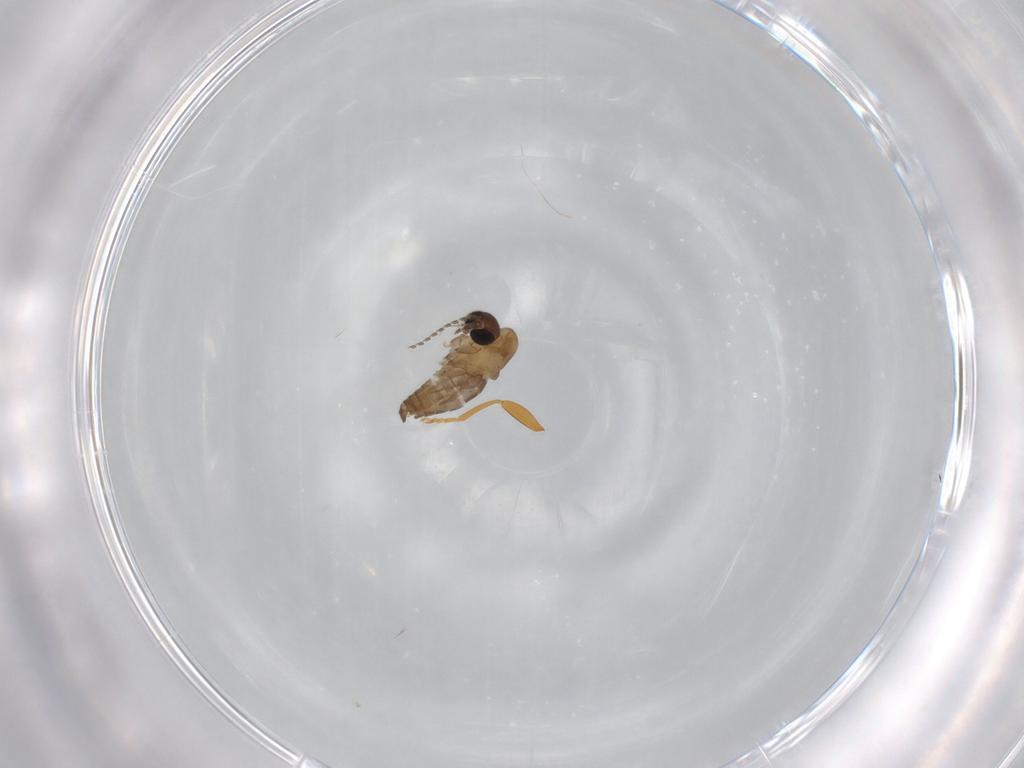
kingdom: Animalia
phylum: Arthropoda
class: Insecta
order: Diptera
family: Psychodidae
